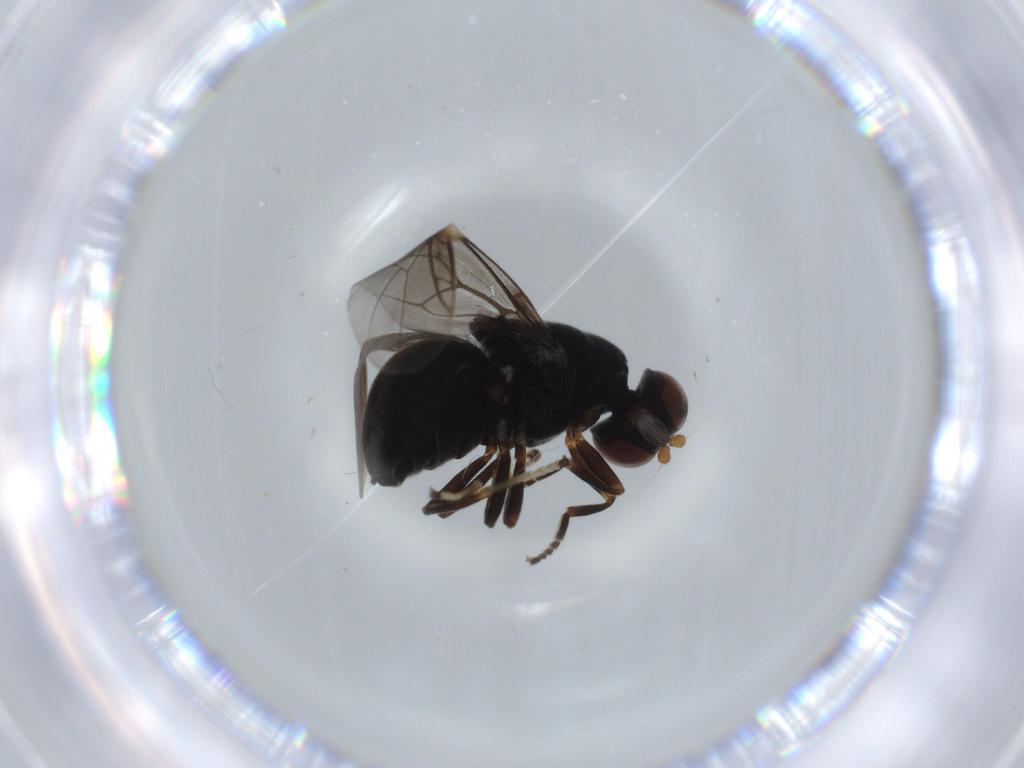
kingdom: Animalia
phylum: Arthropoda
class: Insecta
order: Diptera
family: Stratiomyidae
